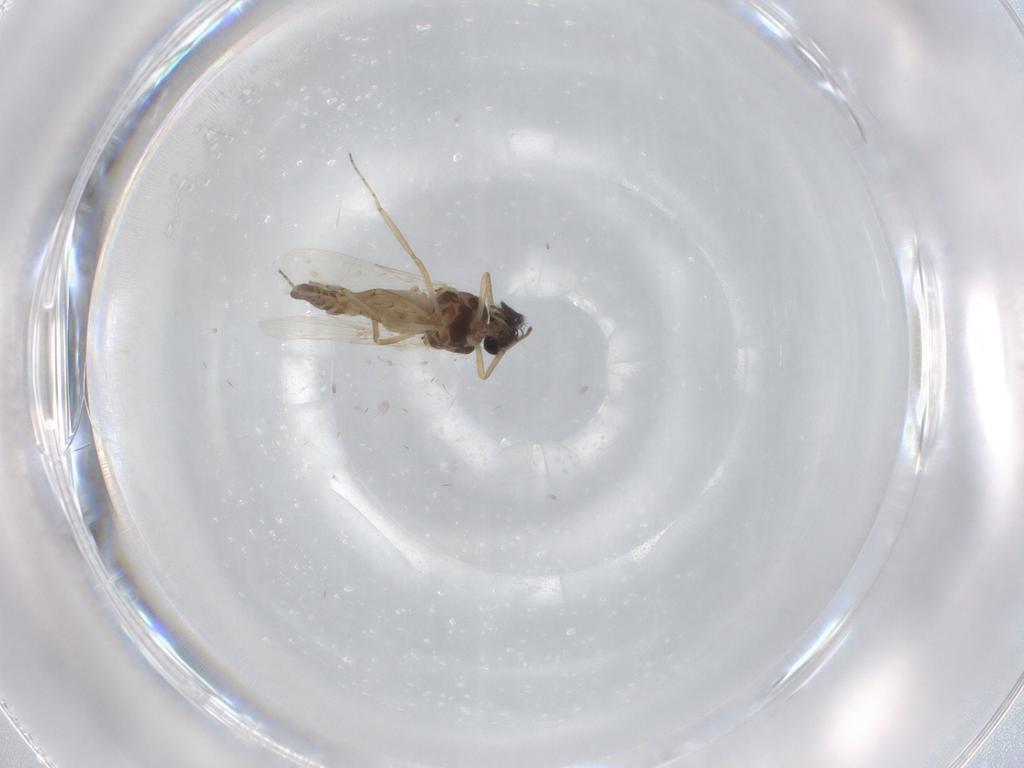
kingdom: Animalia
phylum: Arthropoda
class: Insecta
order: Diptera
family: Ceratopogonidae
